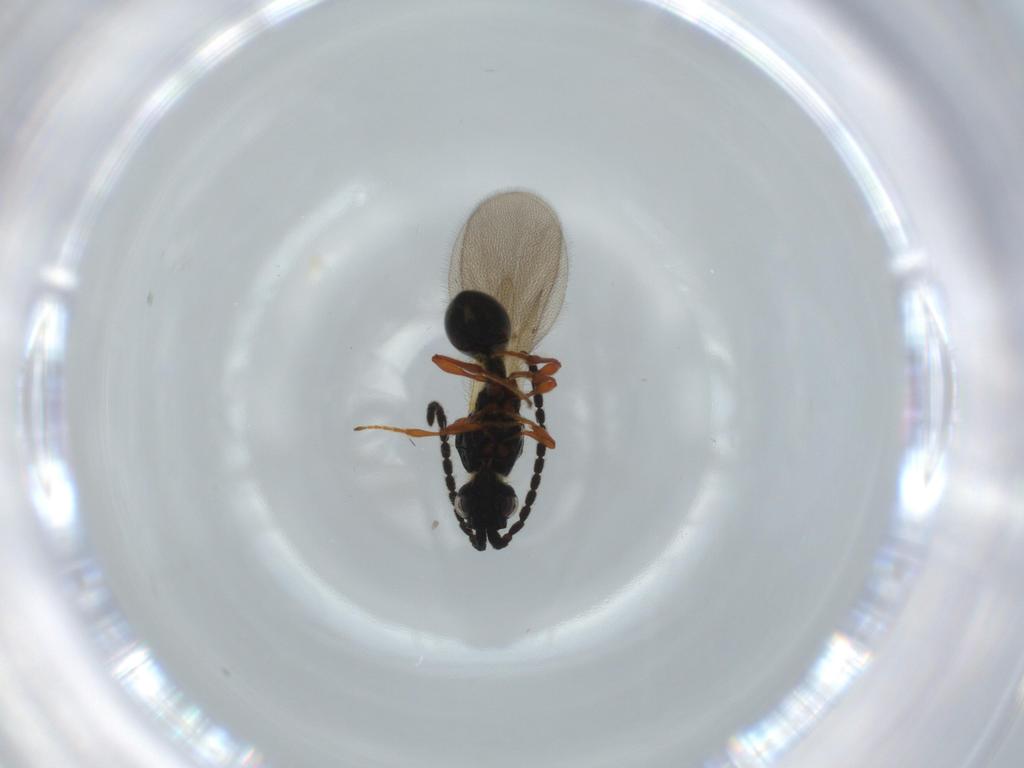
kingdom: Animalia
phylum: Arthropoda
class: Insecta
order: Hymenoptera
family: Diapriidae
